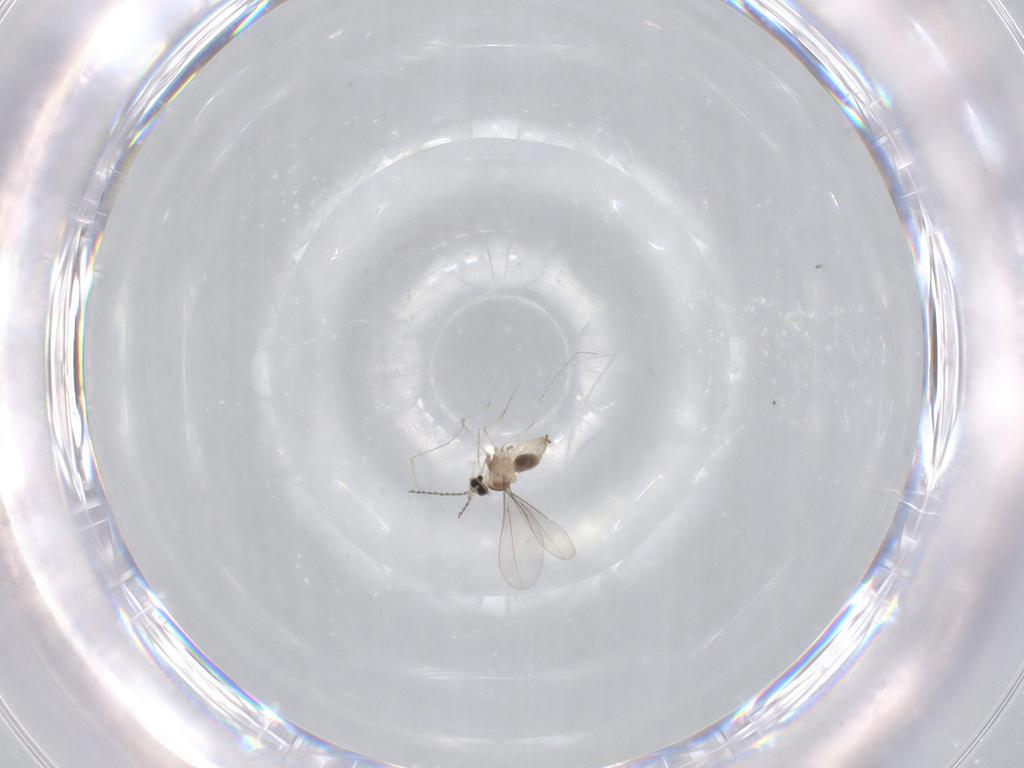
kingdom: Animalia
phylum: Arthropoda
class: Insecta
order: Diptera
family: Cecidomyiidae
